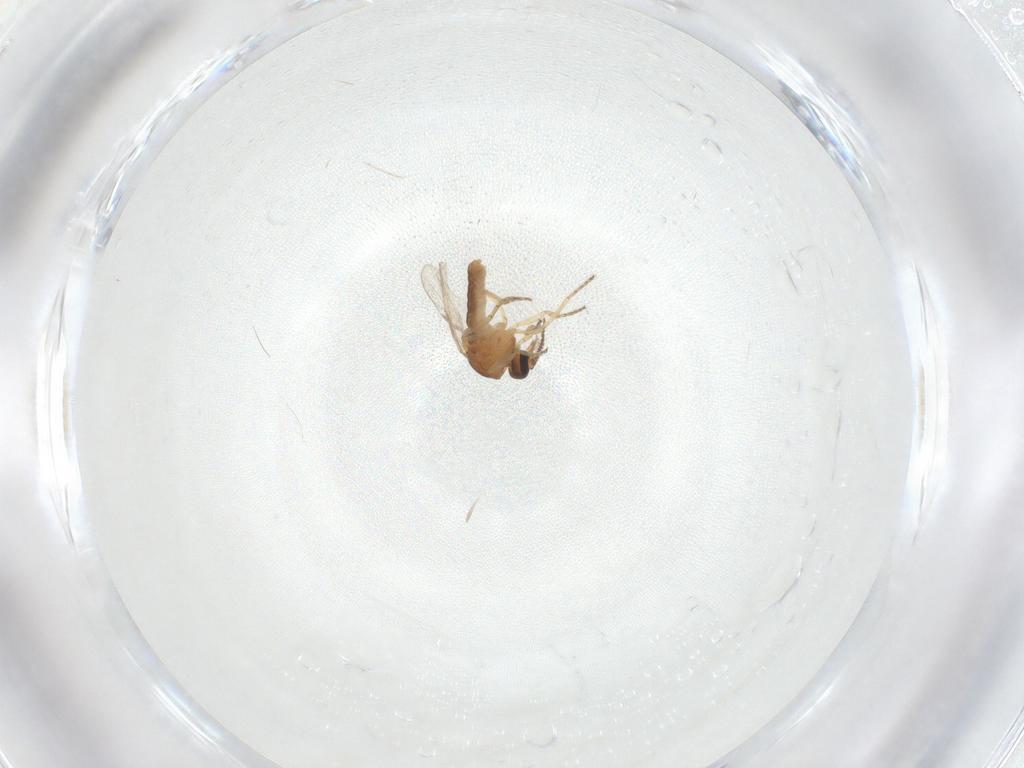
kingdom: Animalia
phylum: Arthropoda
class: Insecta
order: Diptera
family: Ceratopogonidae
